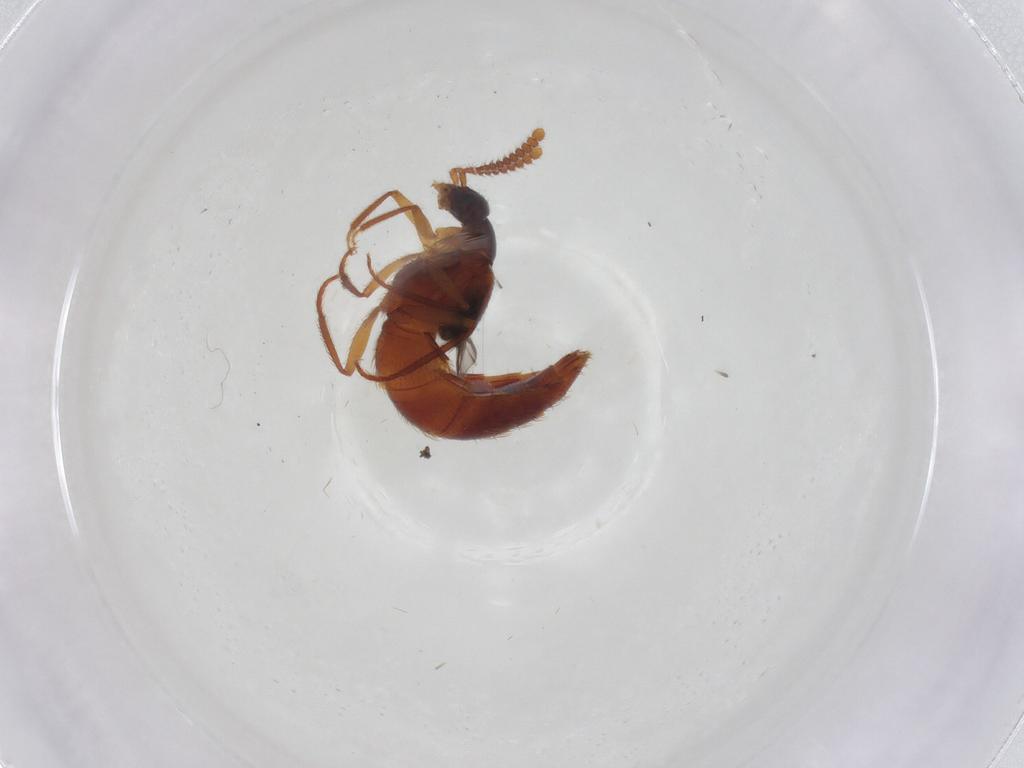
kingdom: Animalia
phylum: Arthropoda
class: Insecta
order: Coleoptera
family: Staphylinidae
